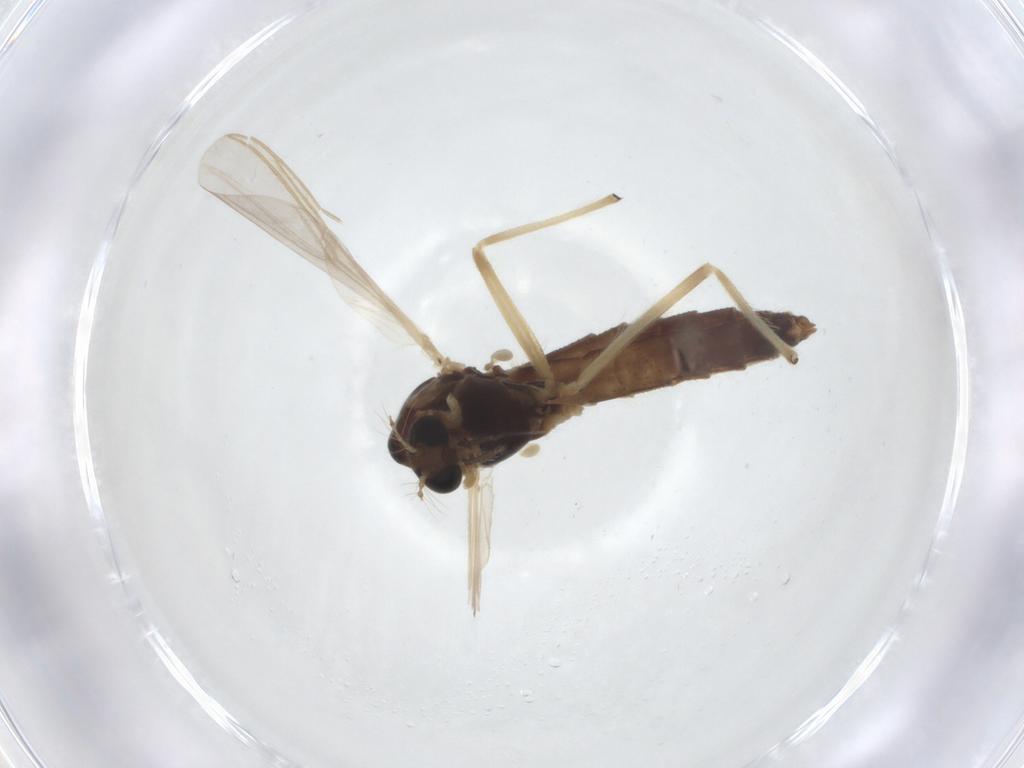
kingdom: Animalia
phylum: Arthropoda
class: Insecta
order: Diptera
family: Chironomidae
